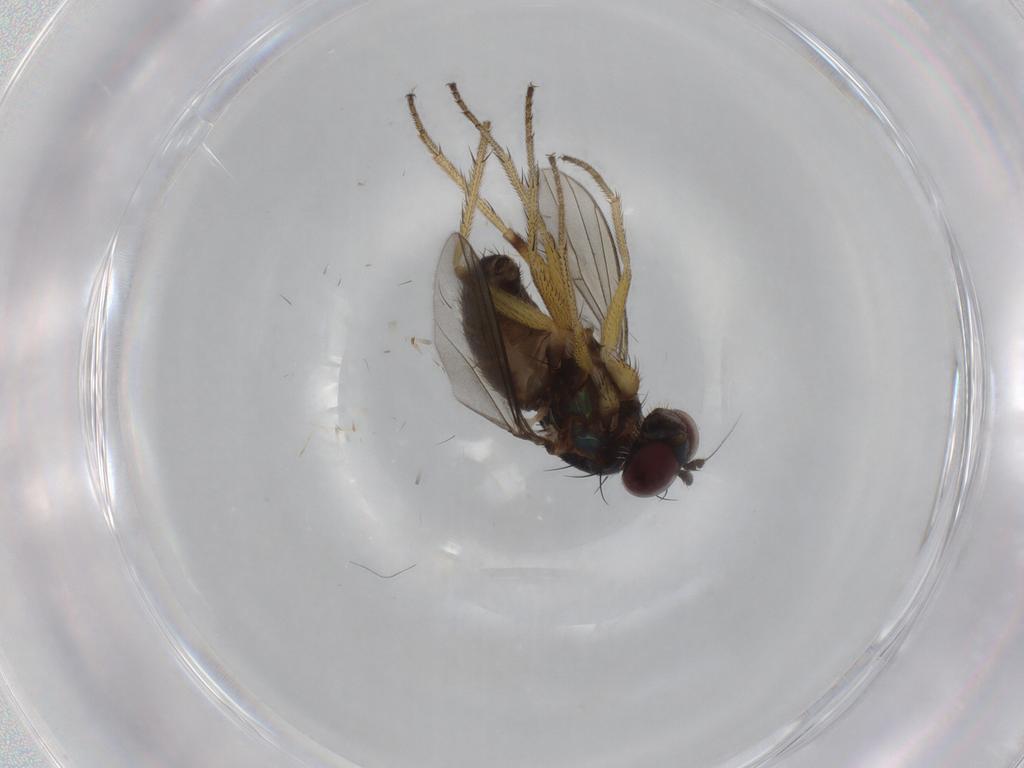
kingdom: Animalia
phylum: Arthropoda
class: Insecta
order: Diptera
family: Dolichopodidae
